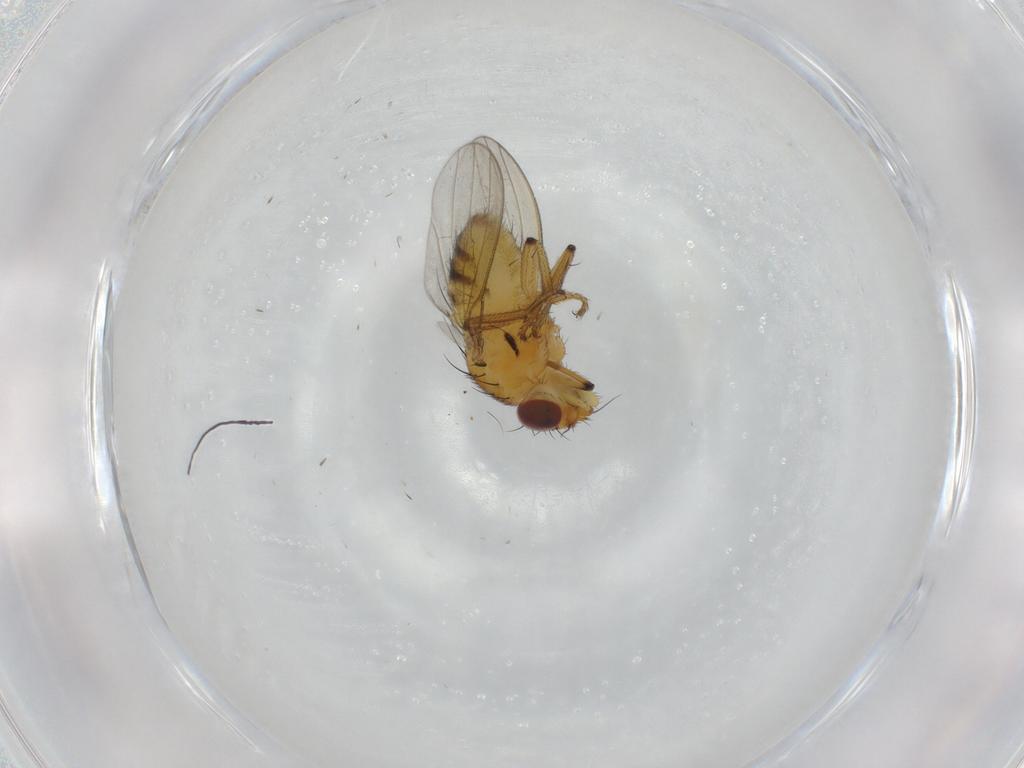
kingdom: Animalia
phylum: Arthropoda
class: Insecta
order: Diptera
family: Milichiidae
